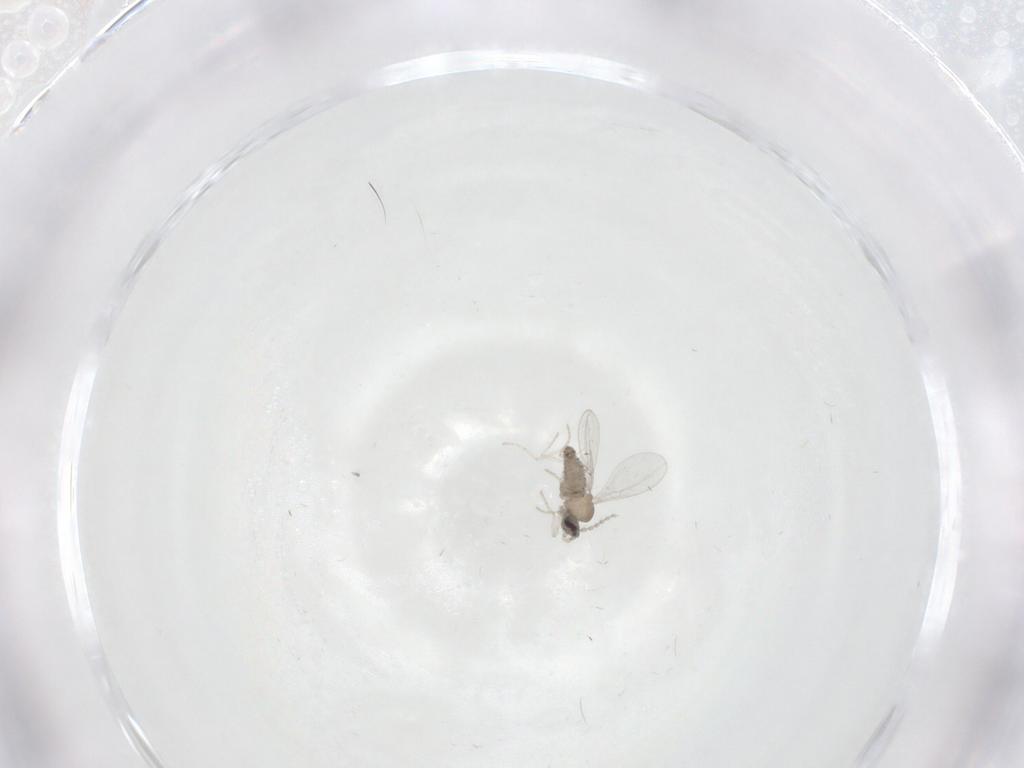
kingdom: Animalia
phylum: Arthropoda
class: Insecta
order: Diptera
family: Cecidomyiidae
